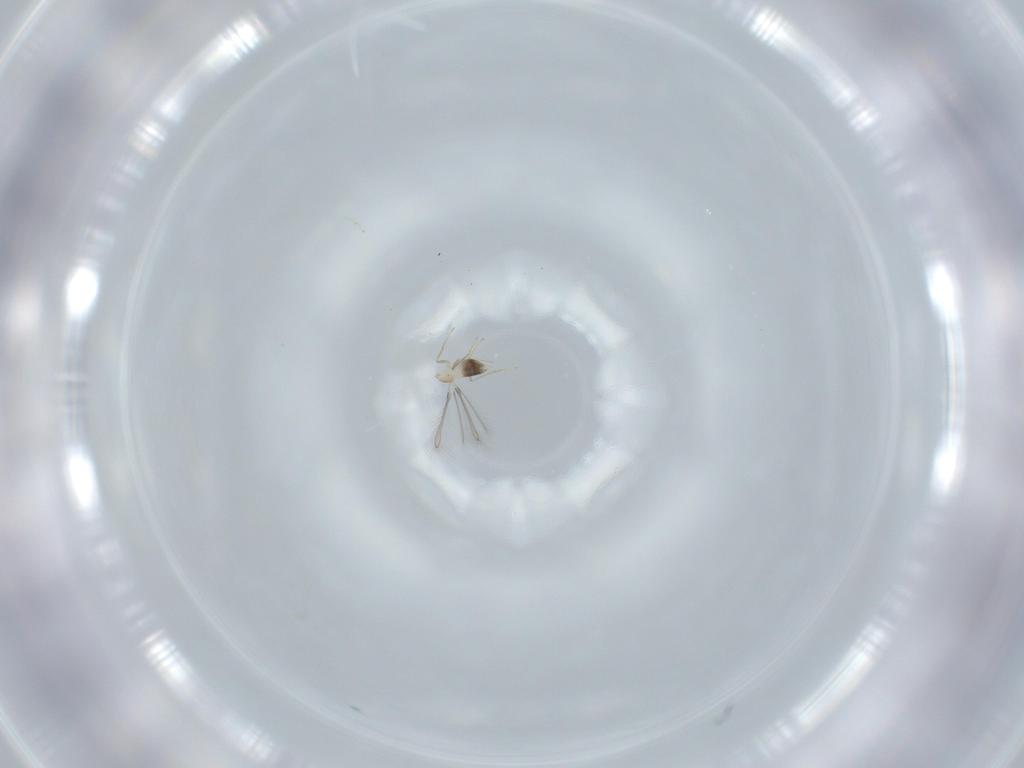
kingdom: Animalia
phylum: Arthropoda
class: Insecta
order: Hymenoptera
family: Mymaridae
